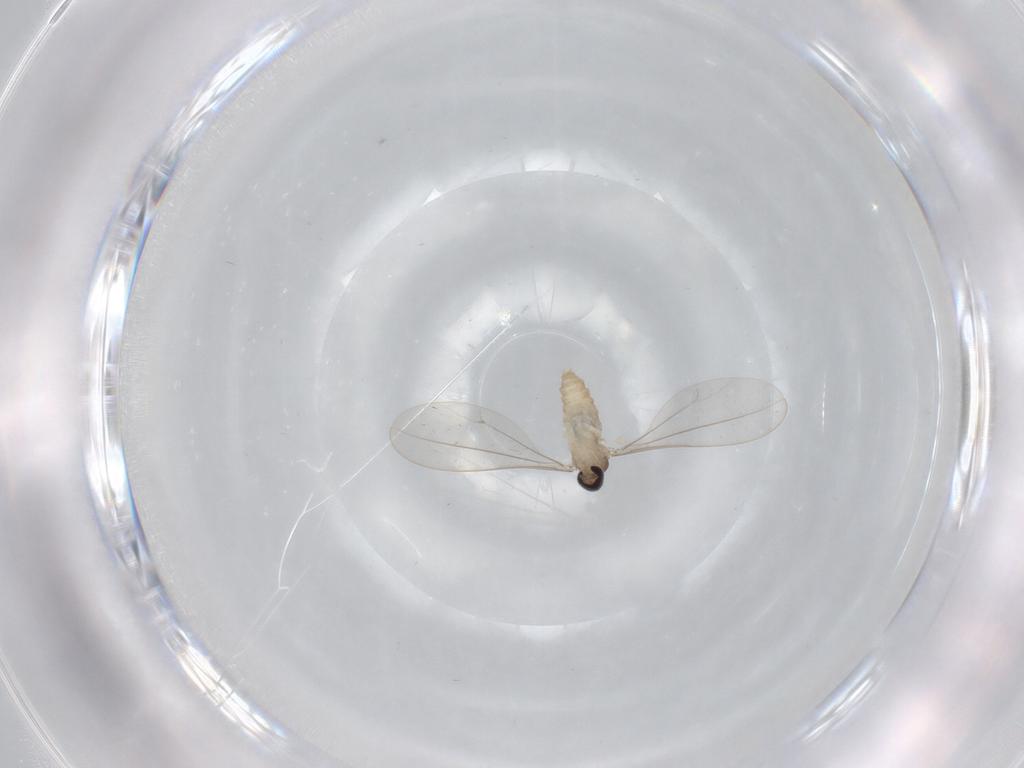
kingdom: Animalia
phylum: Arthropoda
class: Insecta
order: Diptera
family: Cecidomyiidae
